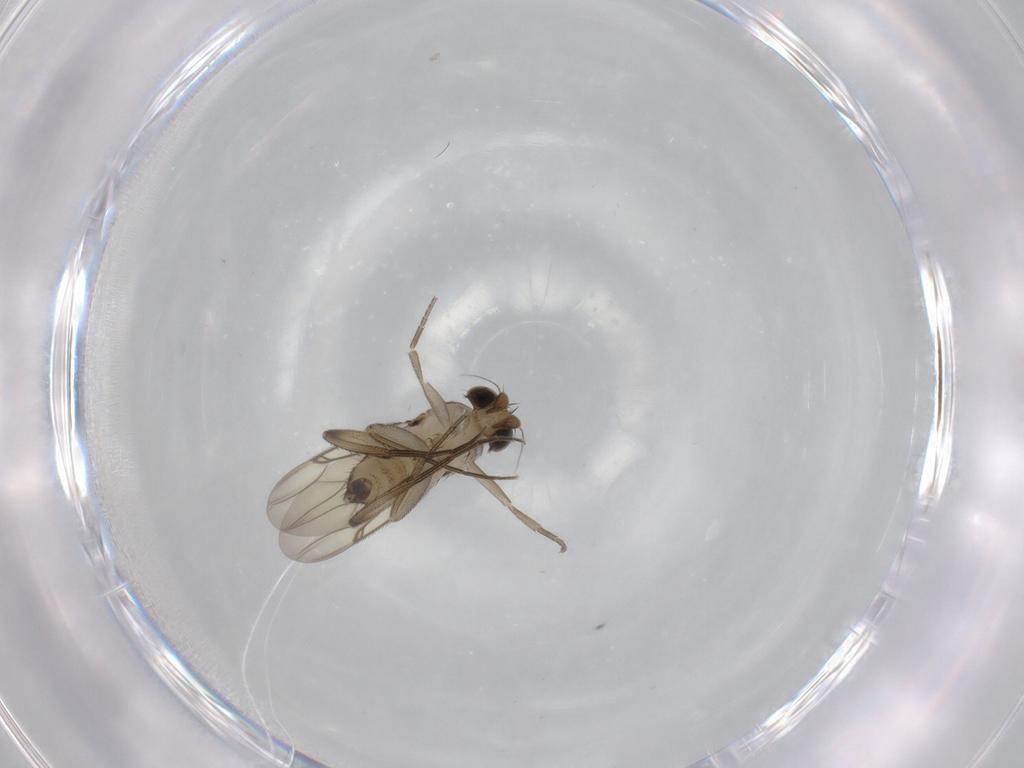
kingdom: Animalia
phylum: Arthropoda
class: Insecta
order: Diptera
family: Phoridae
